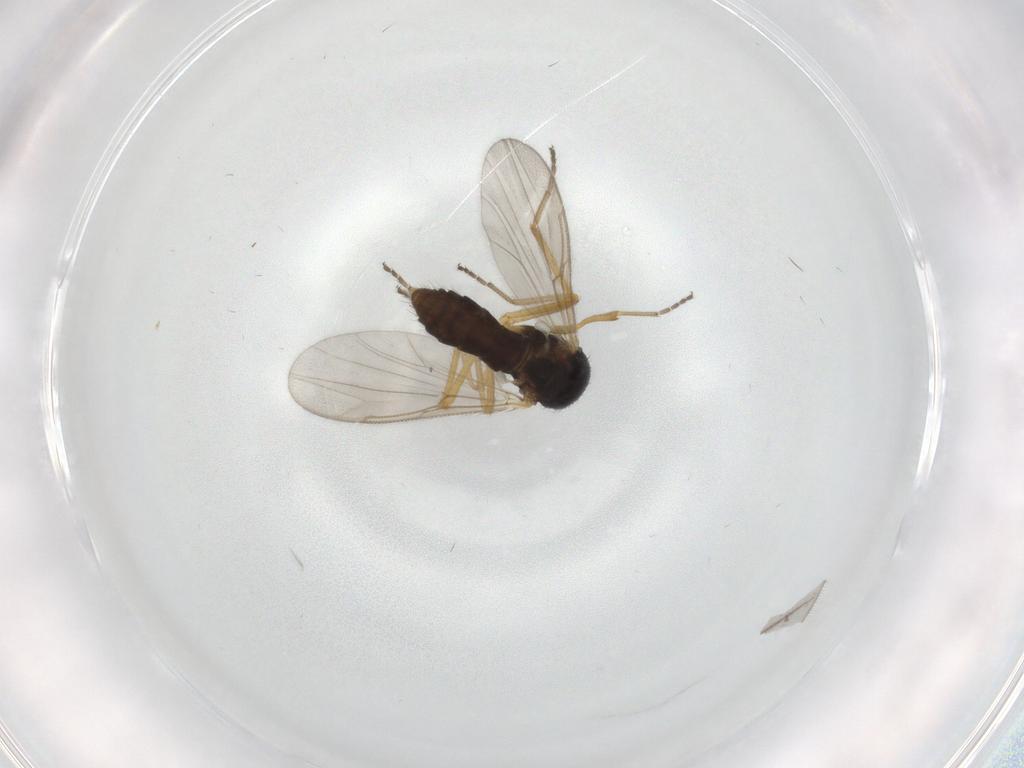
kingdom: Animalia
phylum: Arthropoda
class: Insecta
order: Diptera
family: Ceratopogonidae
